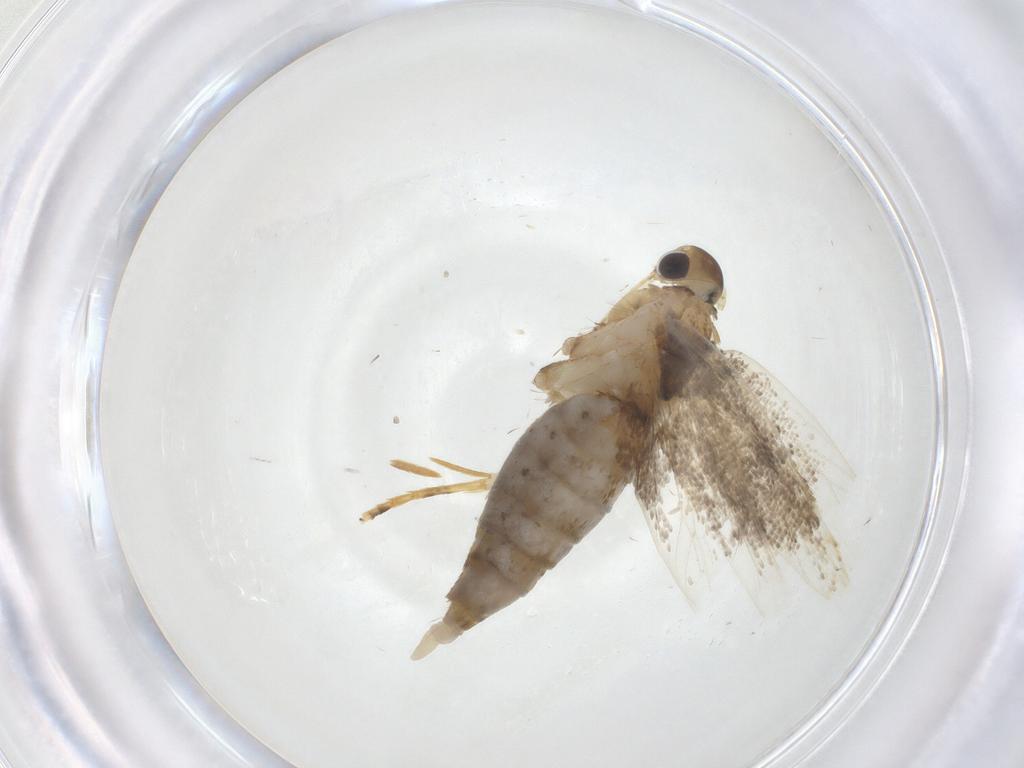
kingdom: Animalia
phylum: Arthropoda
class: Insecta
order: Lepidoptera
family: Lecithoceridae
